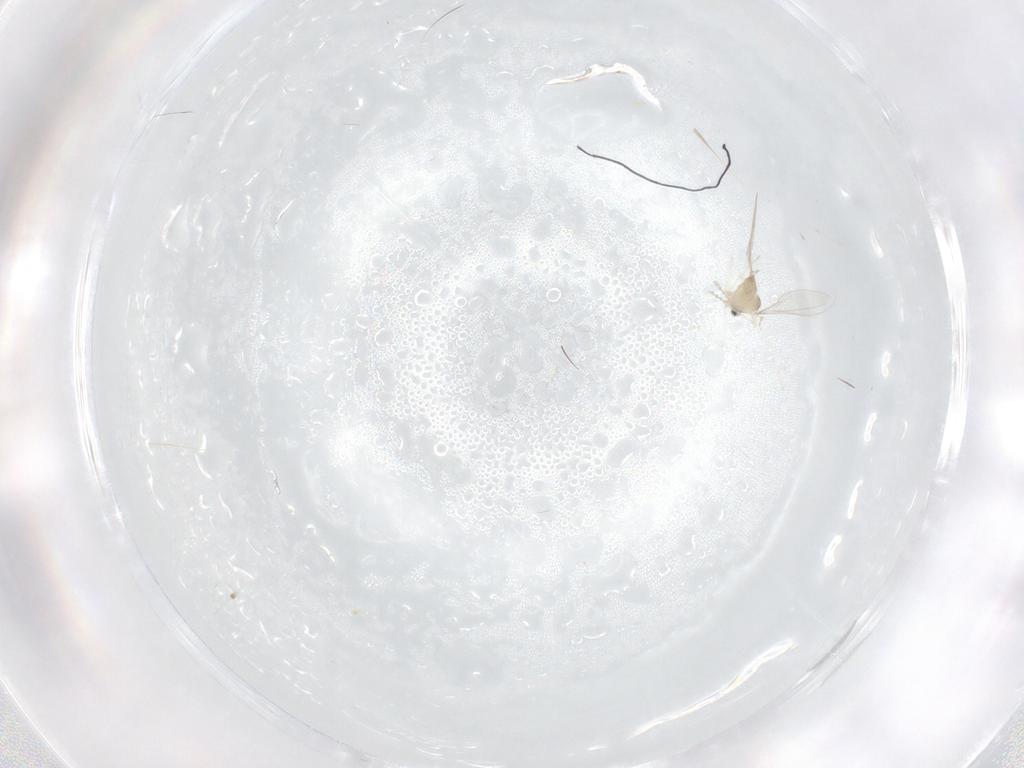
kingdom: Animalia
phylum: Arthropoda
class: Insecta
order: Diptera
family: Cecidomyiidae
